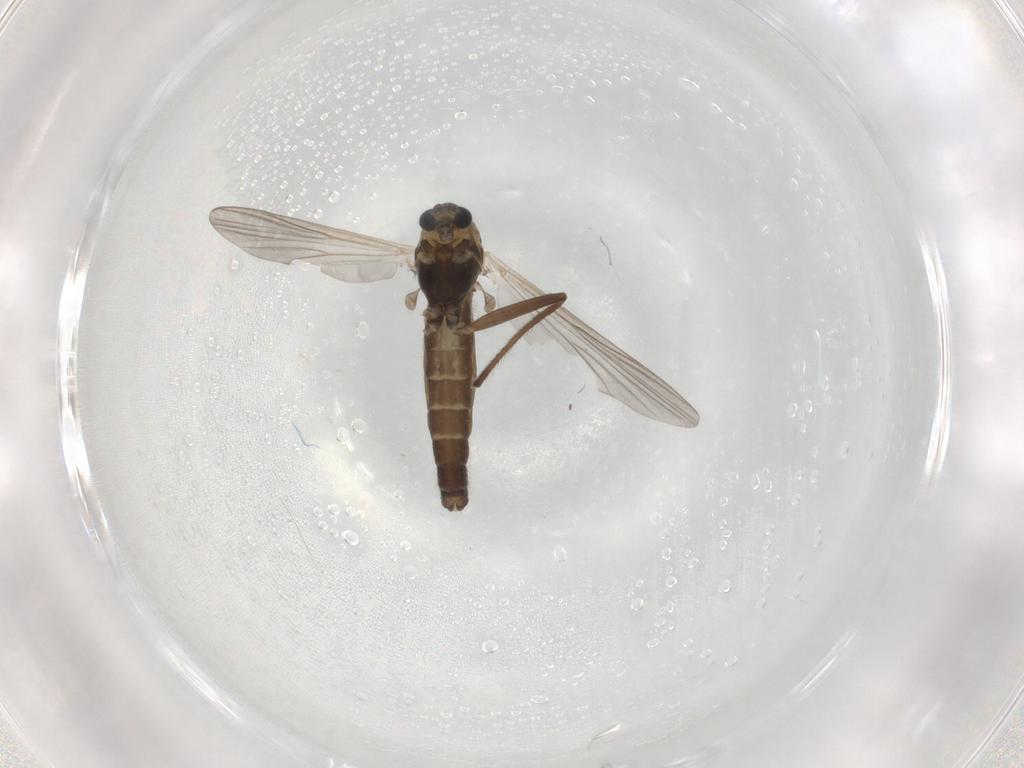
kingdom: Animalia
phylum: Arthropoda
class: Insecta
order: Diptera
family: Chironomidae
